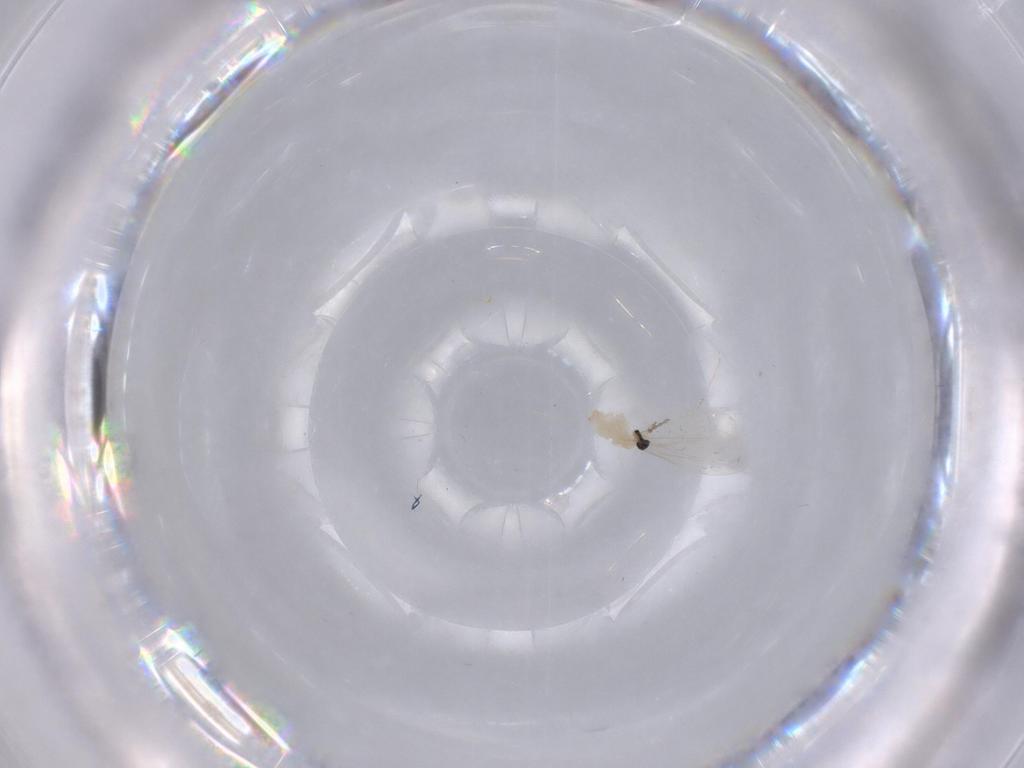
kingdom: Animalia
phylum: Arthropoda
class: Insecta
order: Diptera
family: Cecidomyiidae
